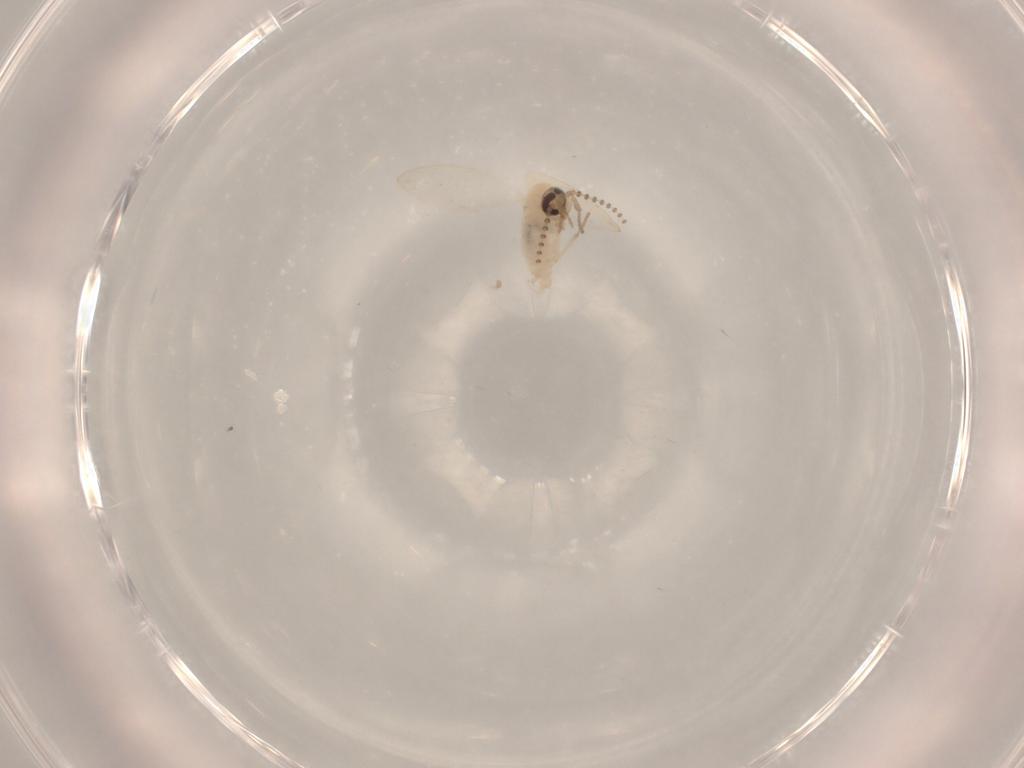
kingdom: Animalia
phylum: Arthropoda
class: Insecta
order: Diptera
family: Psychodidae
